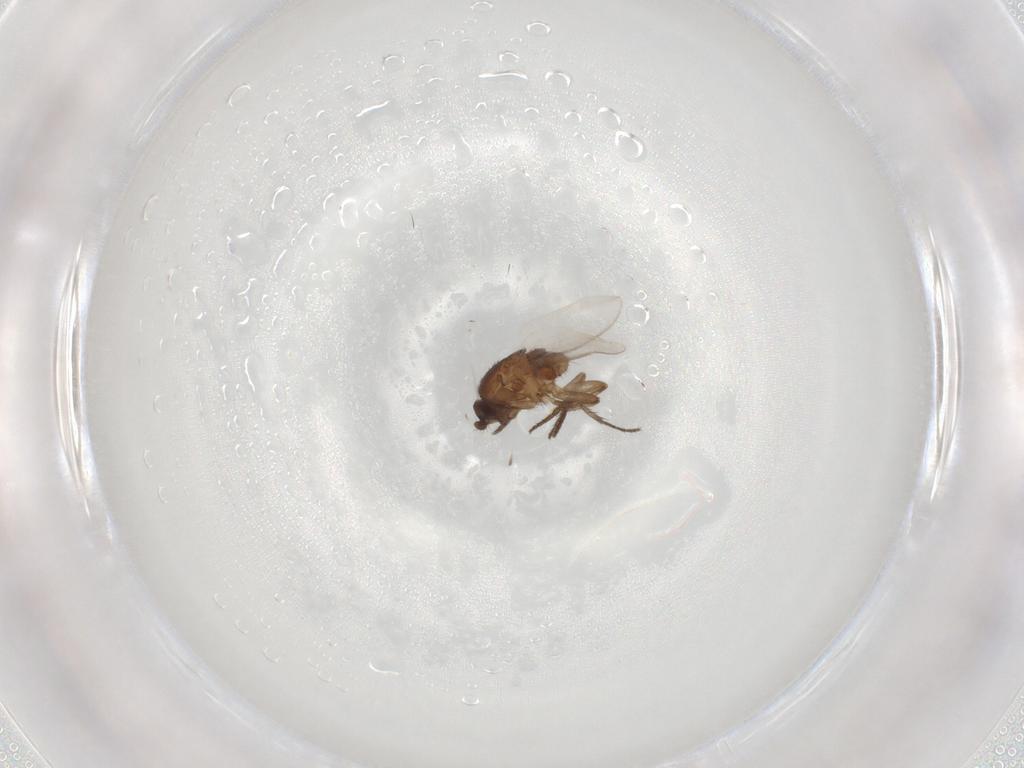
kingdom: Animalia
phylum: Arthropoda
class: Insecta
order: Diptera
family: Sphaeroceridae
